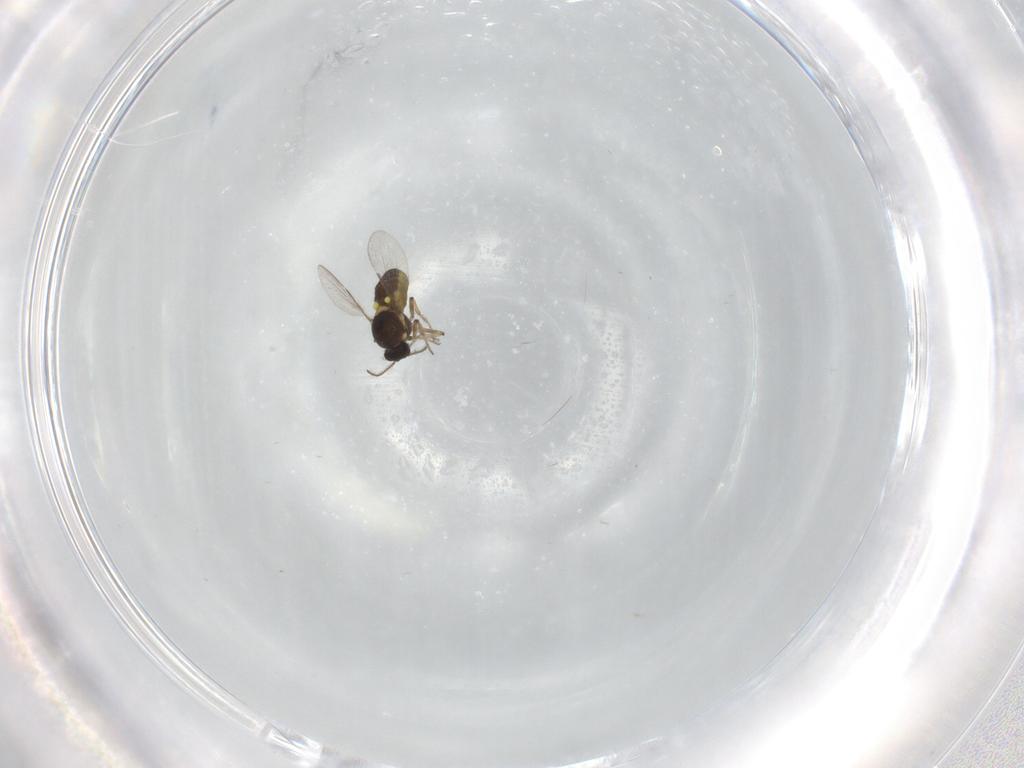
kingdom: Animalia
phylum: Arthropoda
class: Insecta
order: Diptera
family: Ceratopogonidae
